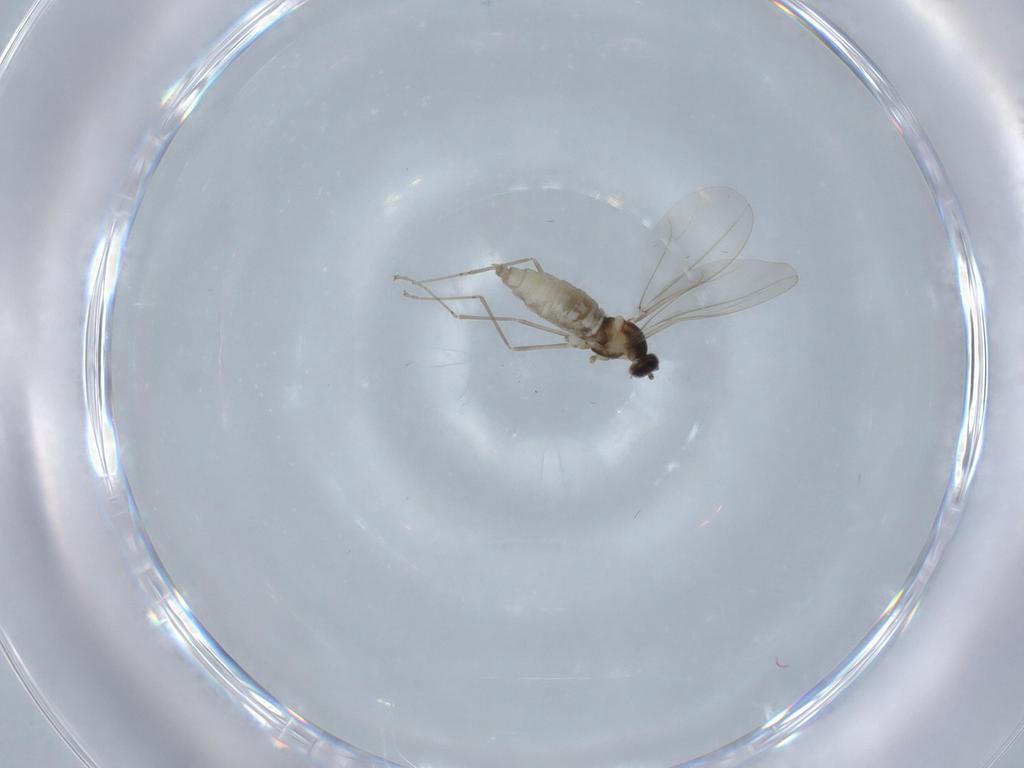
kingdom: Animalia
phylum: Arthropoda
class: Insecta
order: Diptera
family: Cecidomyiidae
